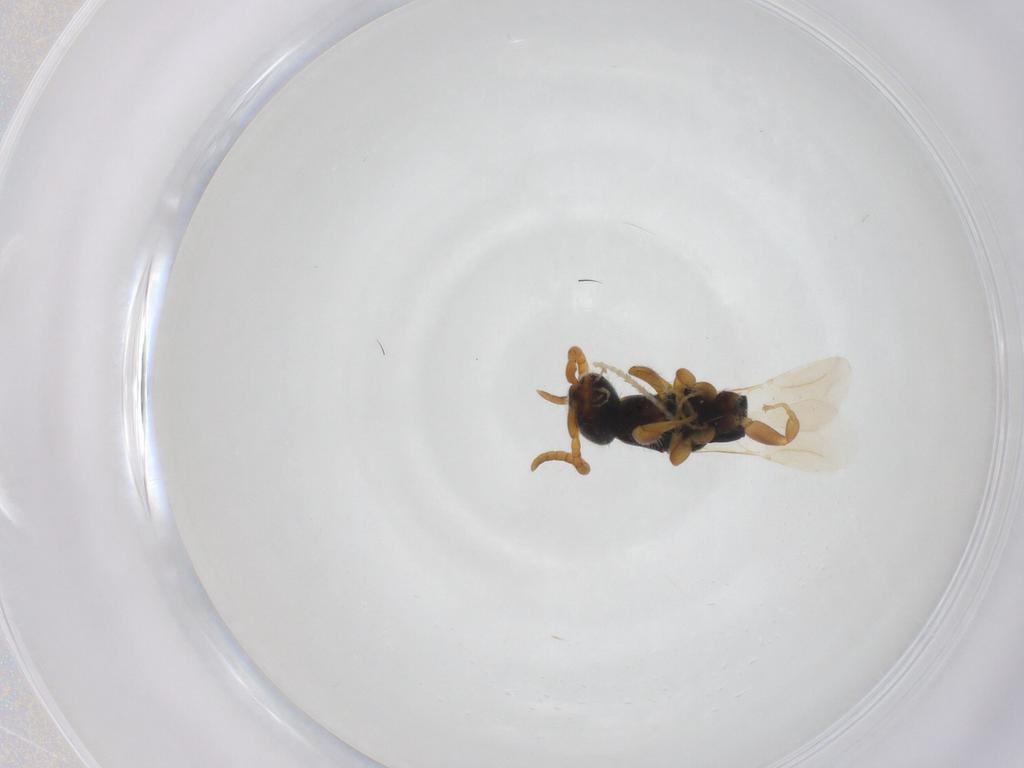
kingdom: Animalia
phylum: Arthropoda
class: Insecta
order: Hymenoptera
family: Bethylidae
